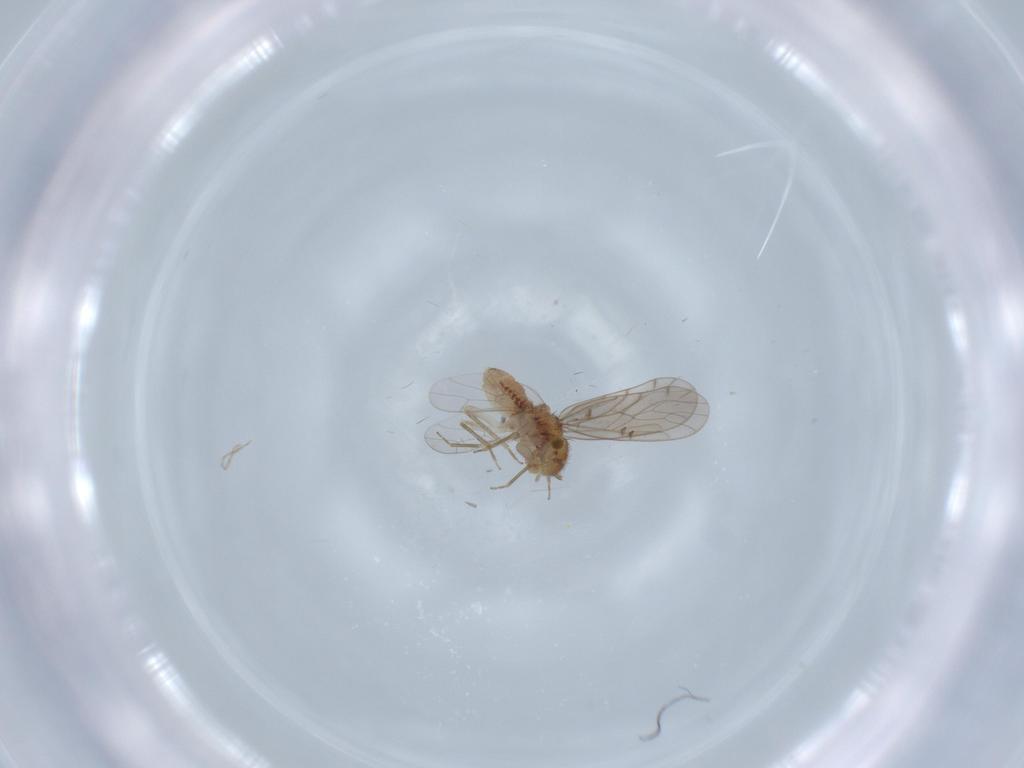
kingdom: Animalia
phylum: Arthropoda
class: Insecta
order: Psocodea
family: Ectopsocidae
